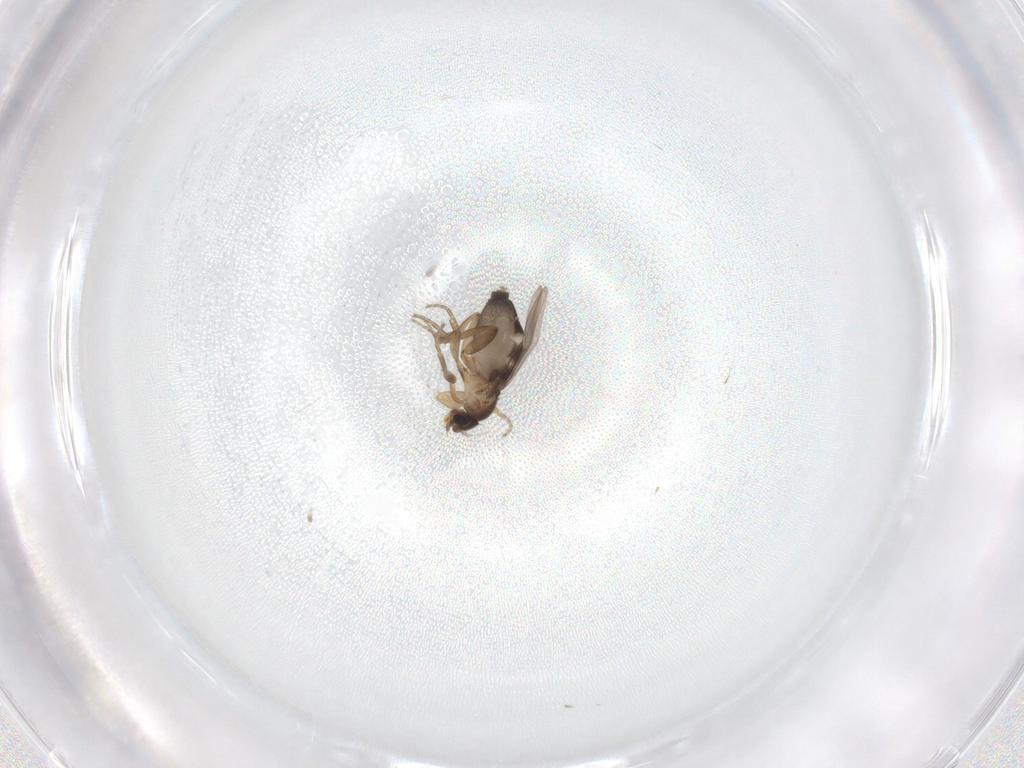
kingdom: Animalia
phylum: Arthropoda
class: Insecta
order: Diptera
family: Phoridae
